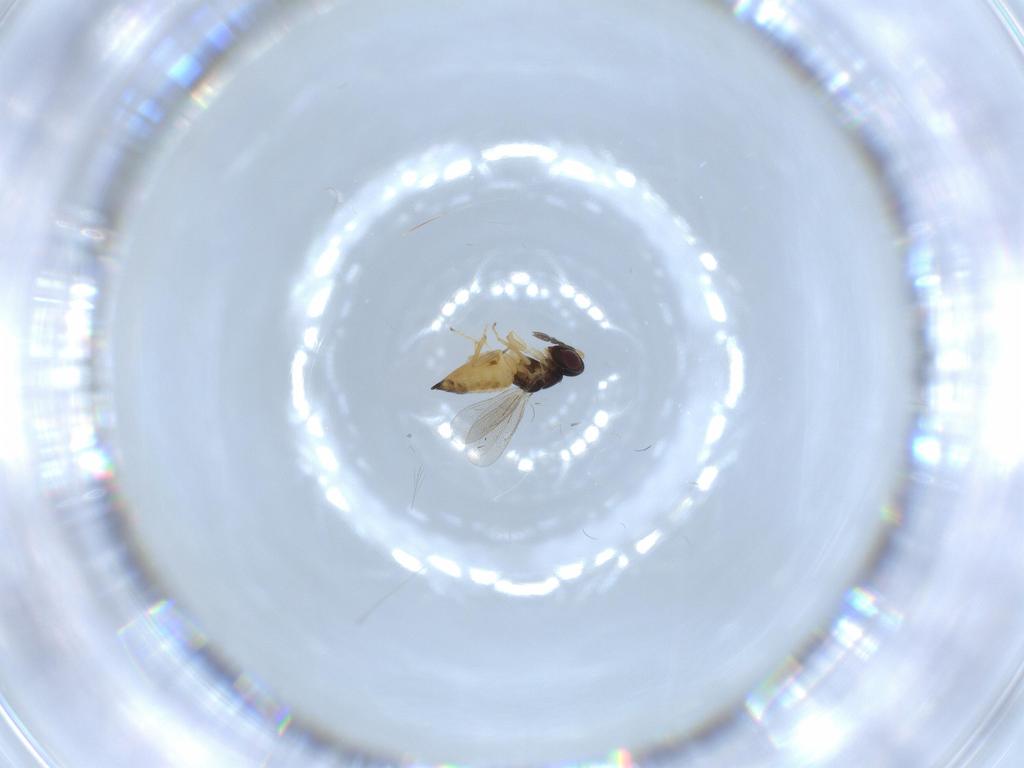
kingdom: Animalia
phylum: Arthropoda
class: Insecta
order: Hymenoptera
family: Eulophidae
